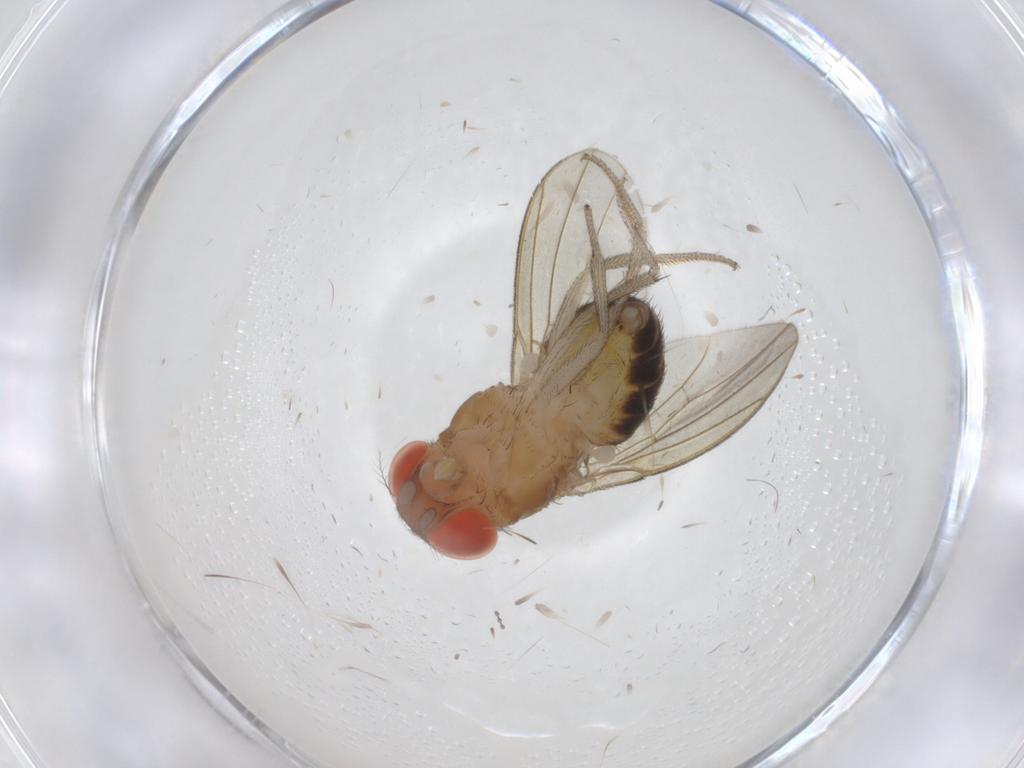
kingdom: Animalia
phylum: Arthropoda
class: Insecta
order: Diptera
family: Drosophilidae
